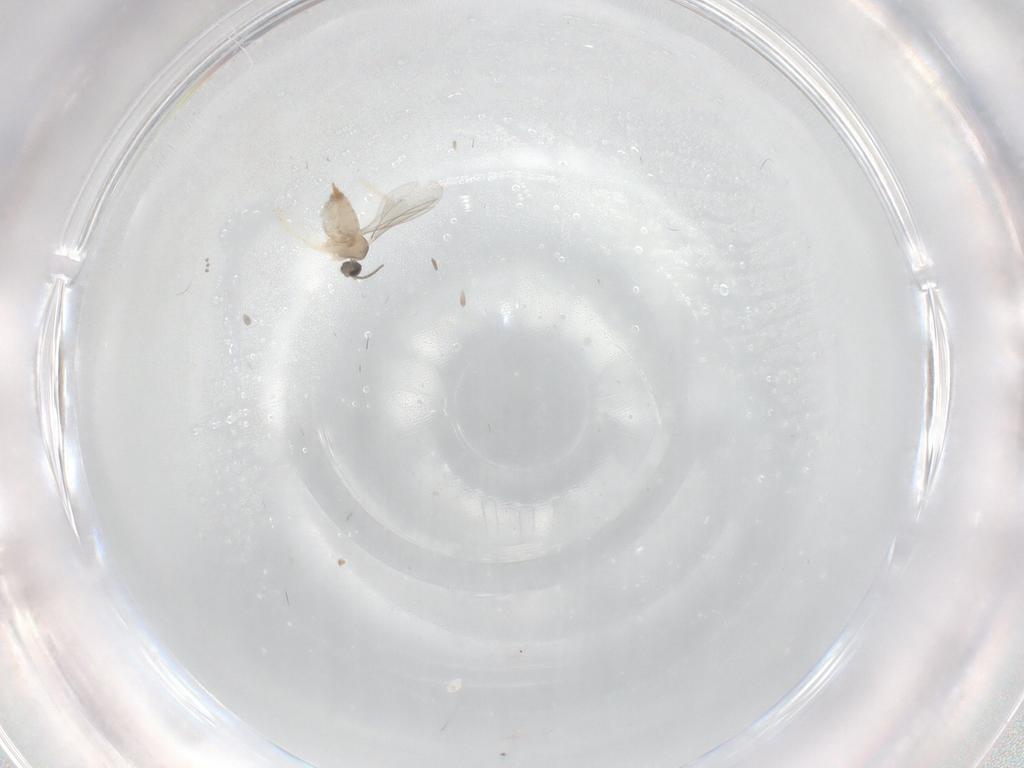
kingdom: Animalia
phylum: Arthropoda
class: Insecta
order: Diptera
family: Cecidomyiidae
